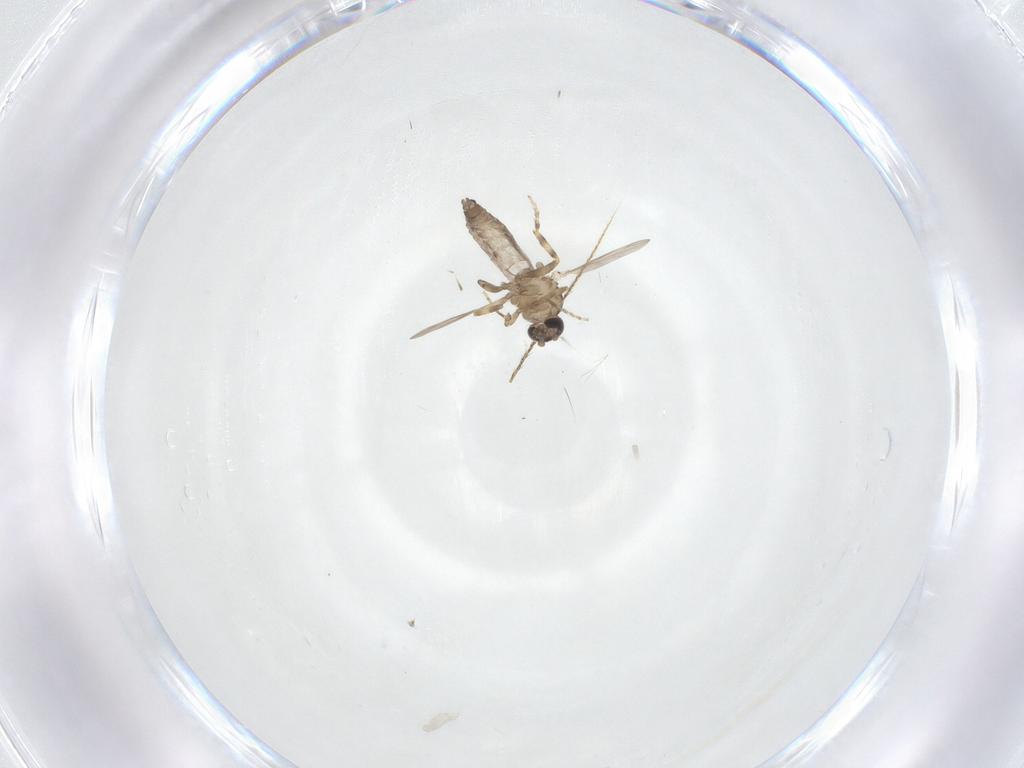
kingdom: Animalia
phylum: Arthropoda
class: Insecta
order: Diptera
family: Ceratopogonidae
